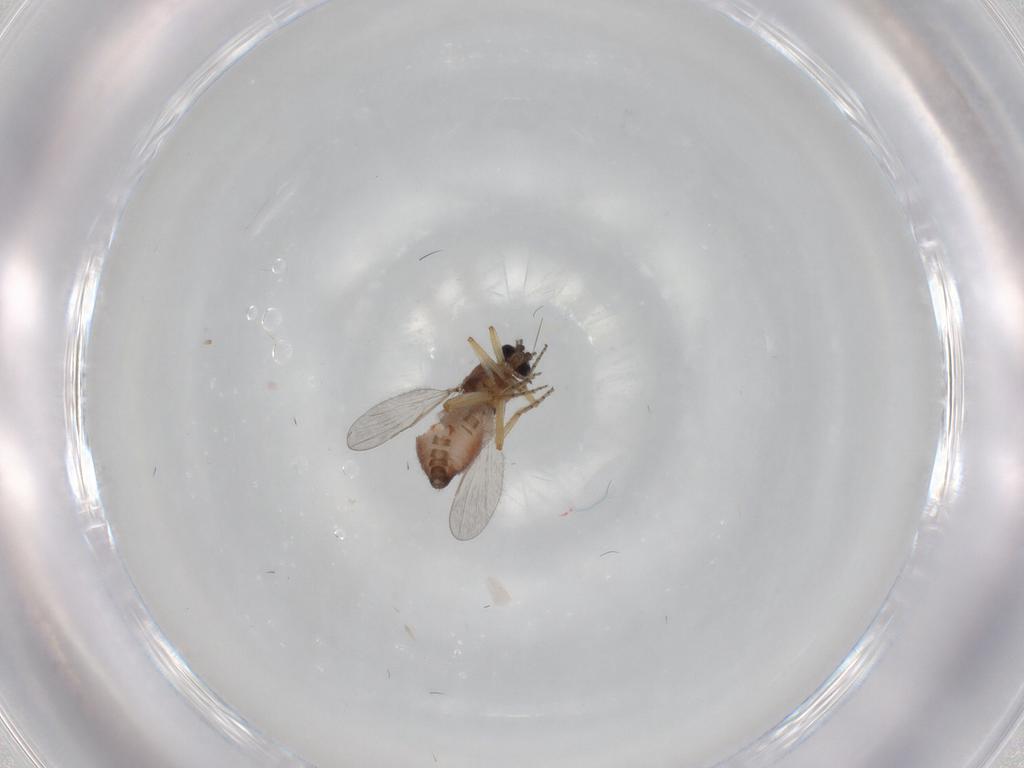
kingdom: Animalia
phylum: Arthropoda
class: Insecta
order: Diptera
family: Ceratopogonidae
